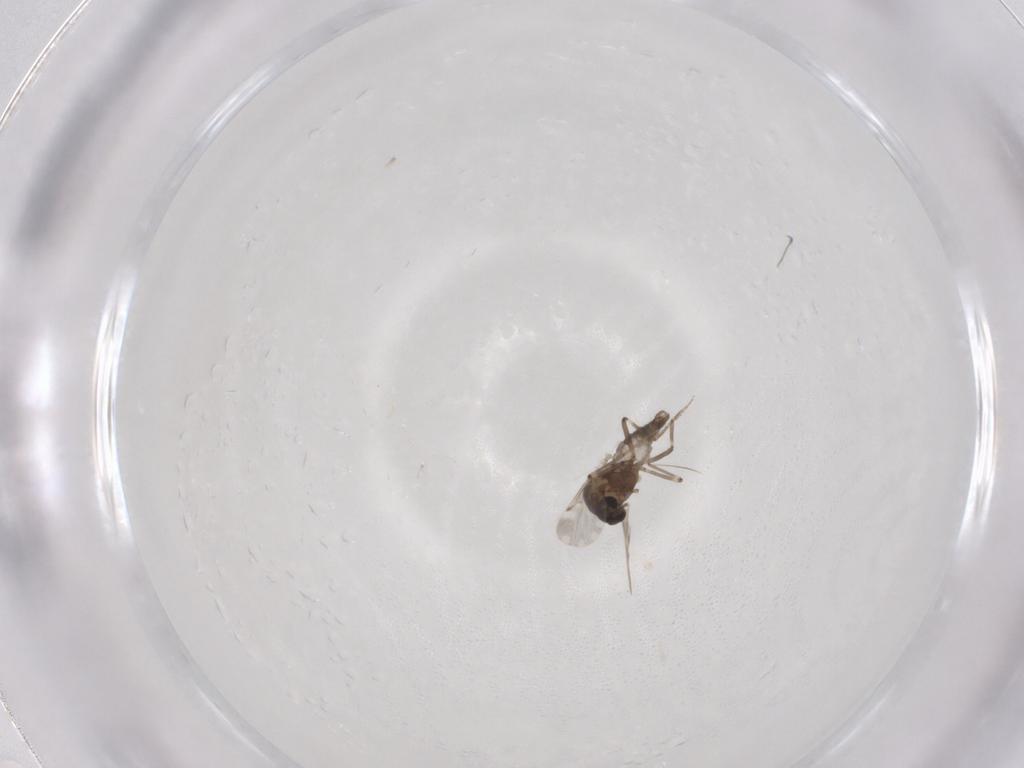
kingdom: Animalia
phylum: Arthropoda
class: Insecta
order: Diptera
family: Ceratopogonidae
